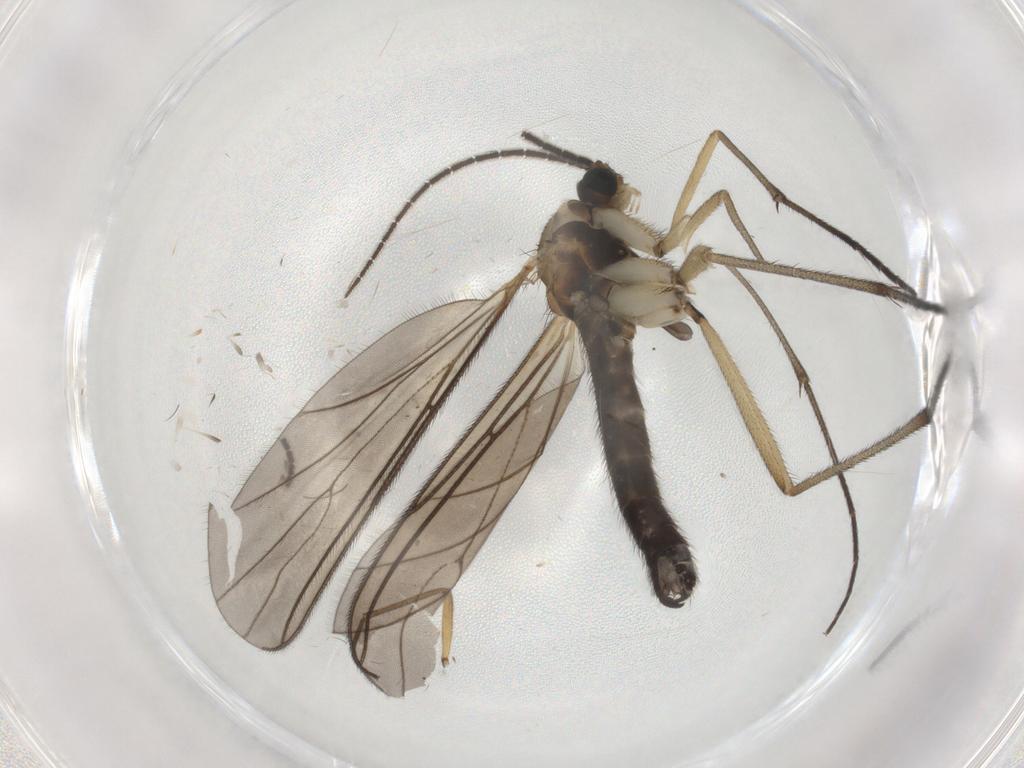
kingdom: Animalia
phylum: Arthropoda
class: Insecta
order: Diptera
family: Sciaridae
